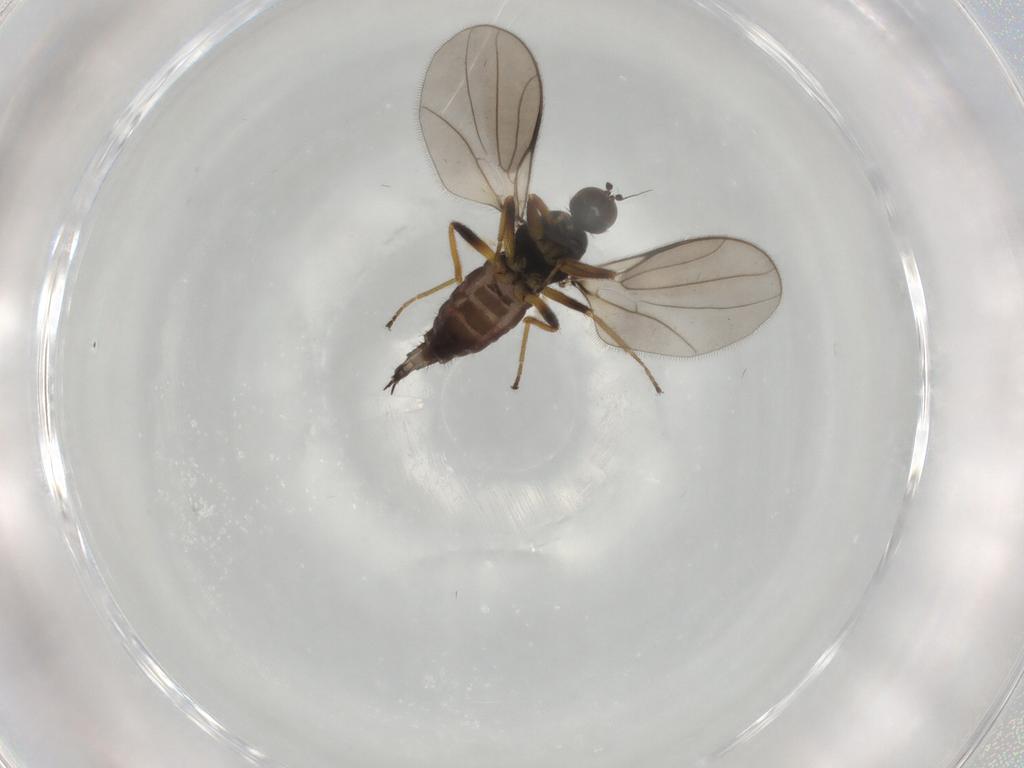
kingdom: Animalia
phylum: Arthropoda
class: Insecta
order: Diptera
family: Hybotidae
